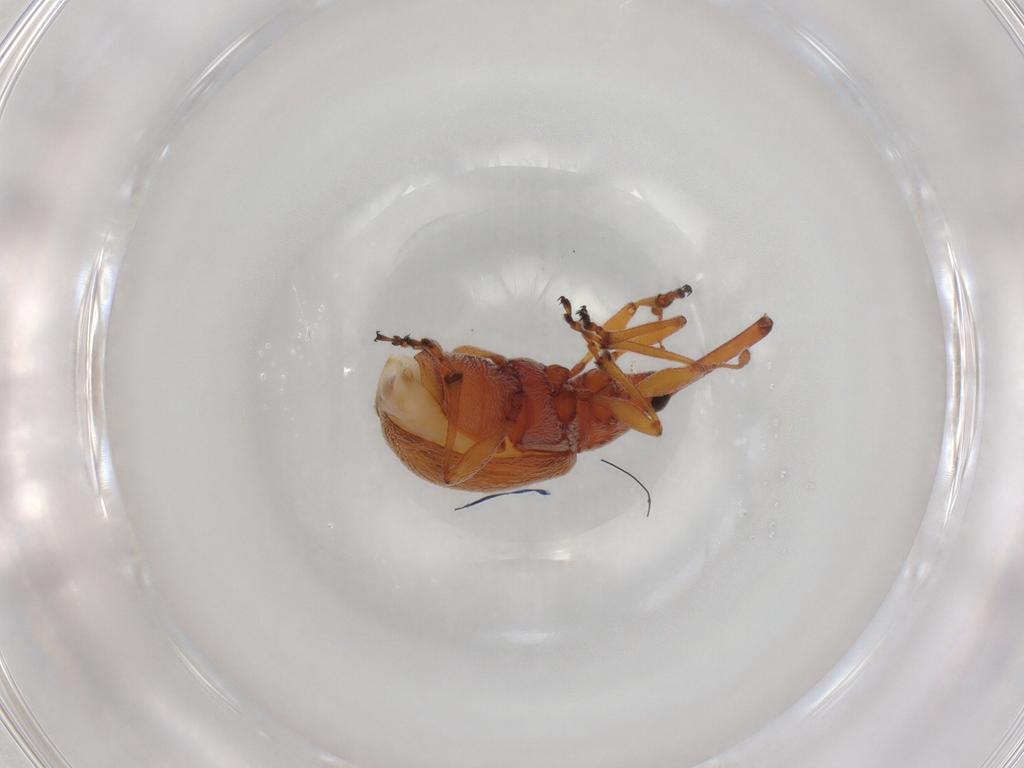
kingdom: Animalia
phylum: Arthropoda
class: Insecta
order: Coleoptera
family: Brentidae
